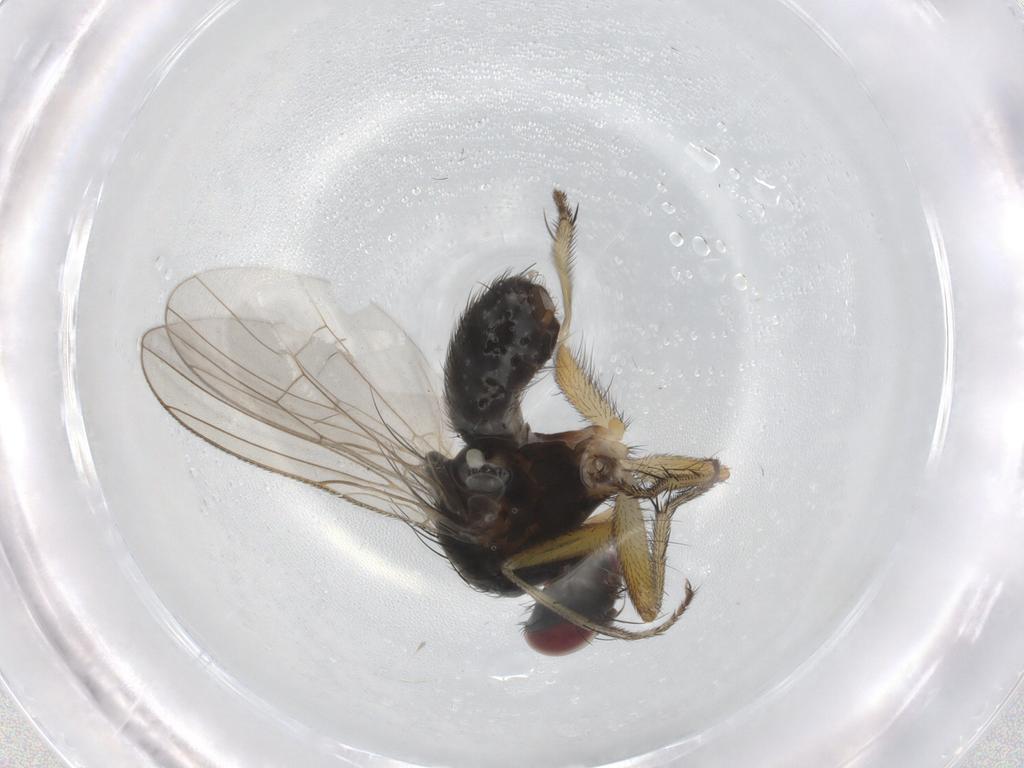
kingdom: Animalia
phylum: Arthropoda
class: Insecta
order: Diptera
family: Muscidae
